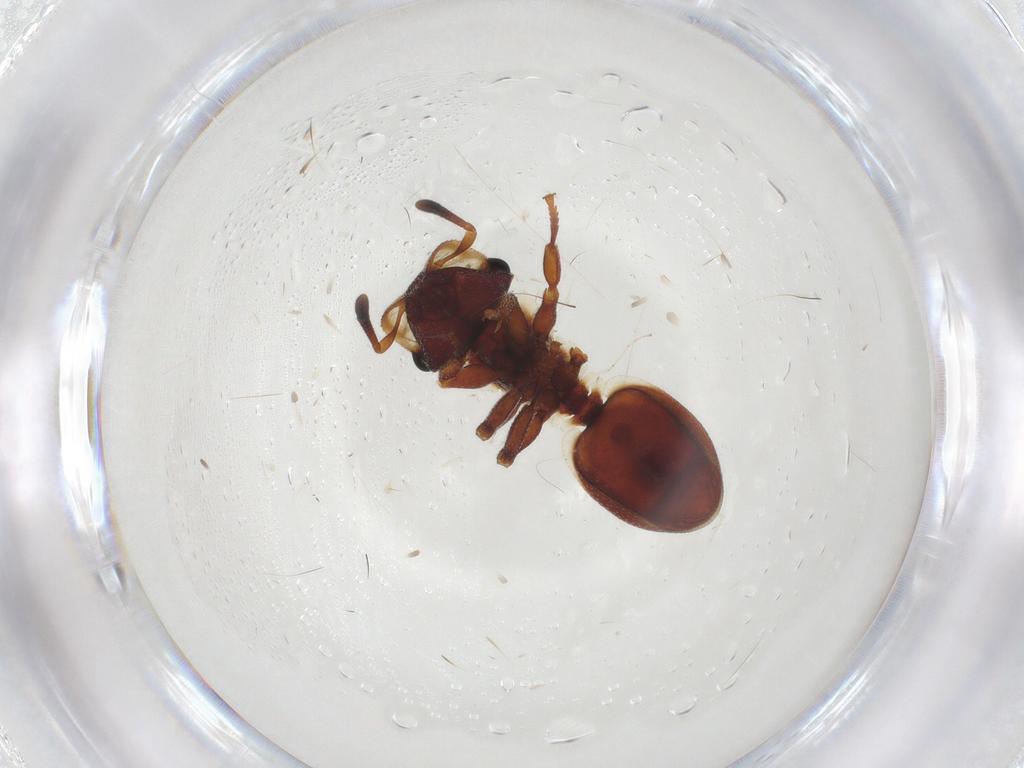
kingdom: Animalia
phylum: Arthropoda
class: Insecta
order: Hymenoptera
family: Formicidae
